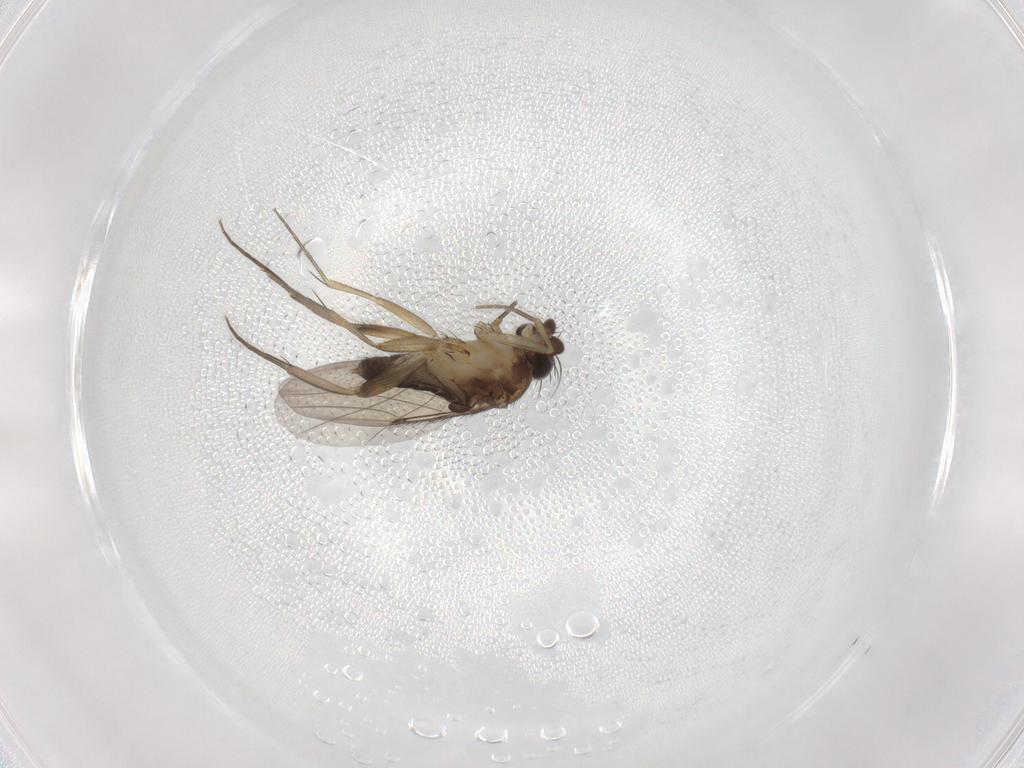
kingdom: Animalia
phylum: Arthropoda
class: Insecta
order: Diptera
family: Phoridae
